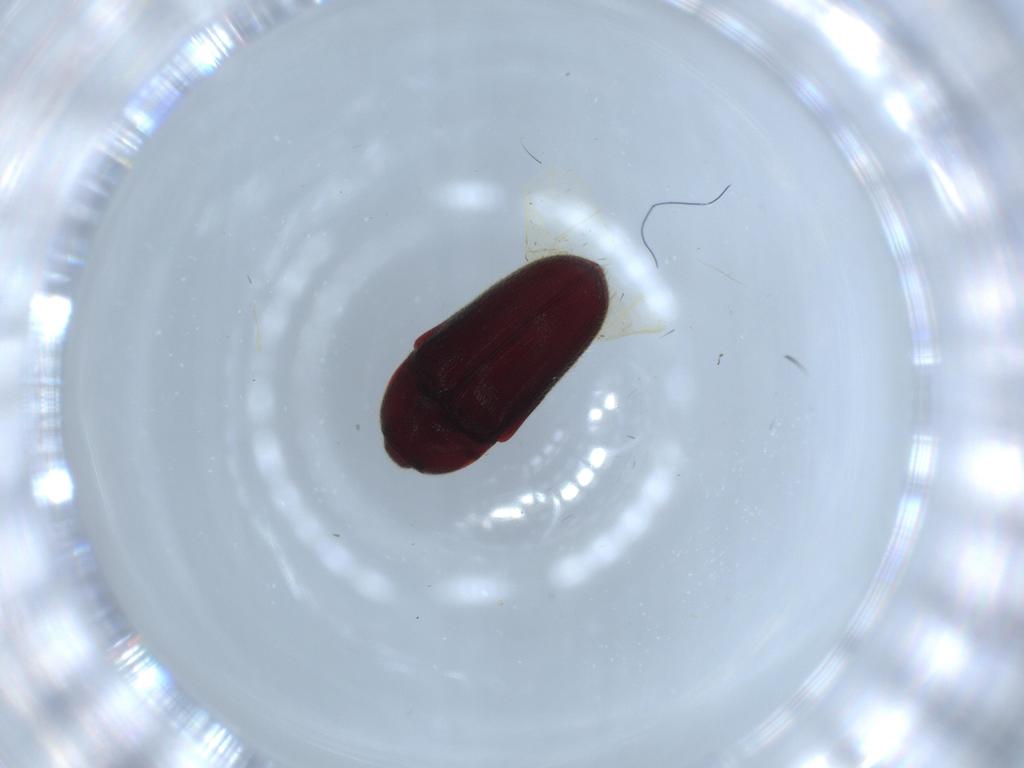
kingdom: Animalia
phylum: Arthropoda
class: Insecta
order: Coleoptera
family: Throscidae
